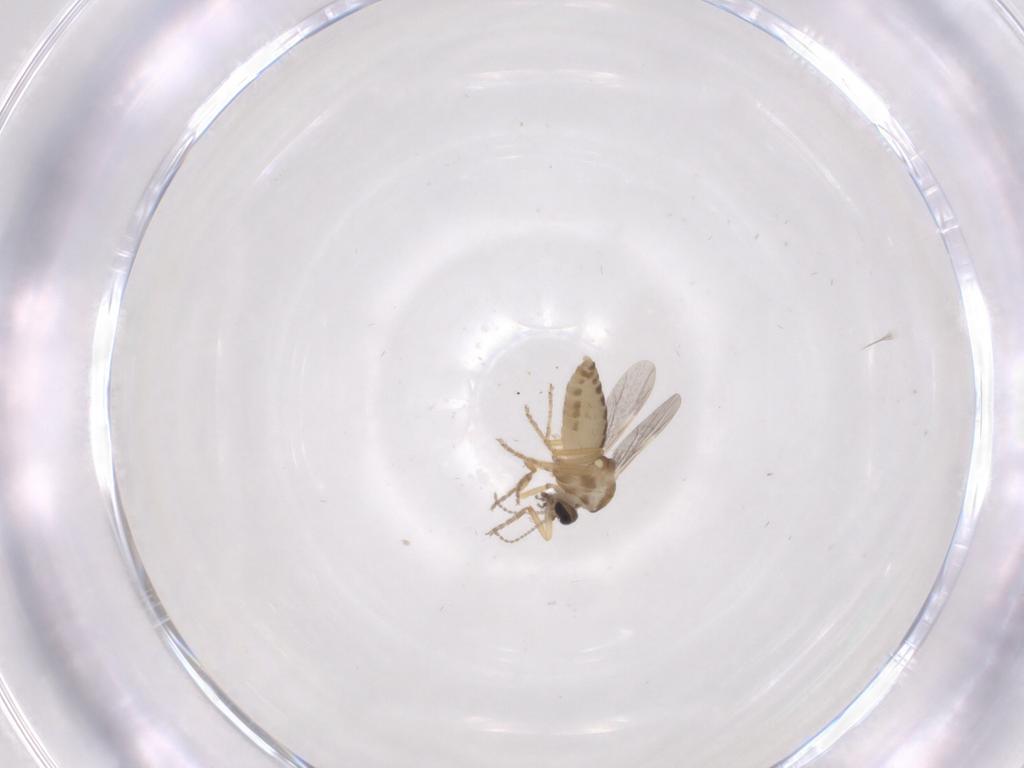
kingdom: Animalia
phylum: Arthropoda
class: Insecta
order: Diptera
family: Ceratopogonidae
